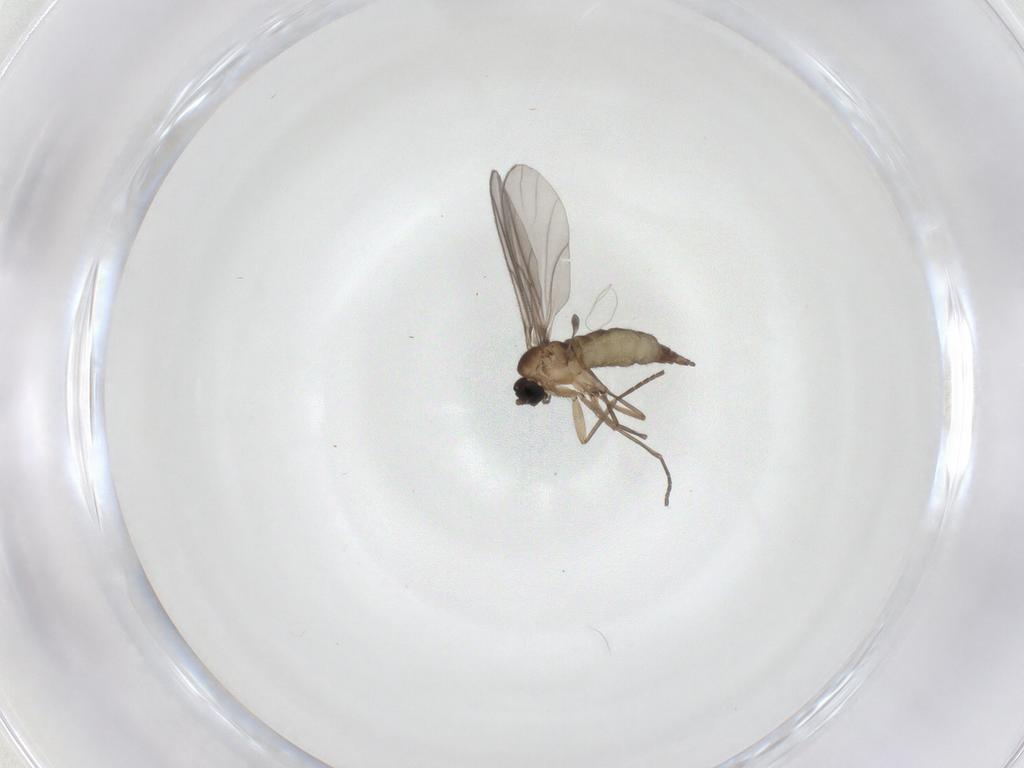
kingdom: Animalia
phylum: Arthropoda
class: Insecta
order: Diptera
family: Sciaridae
